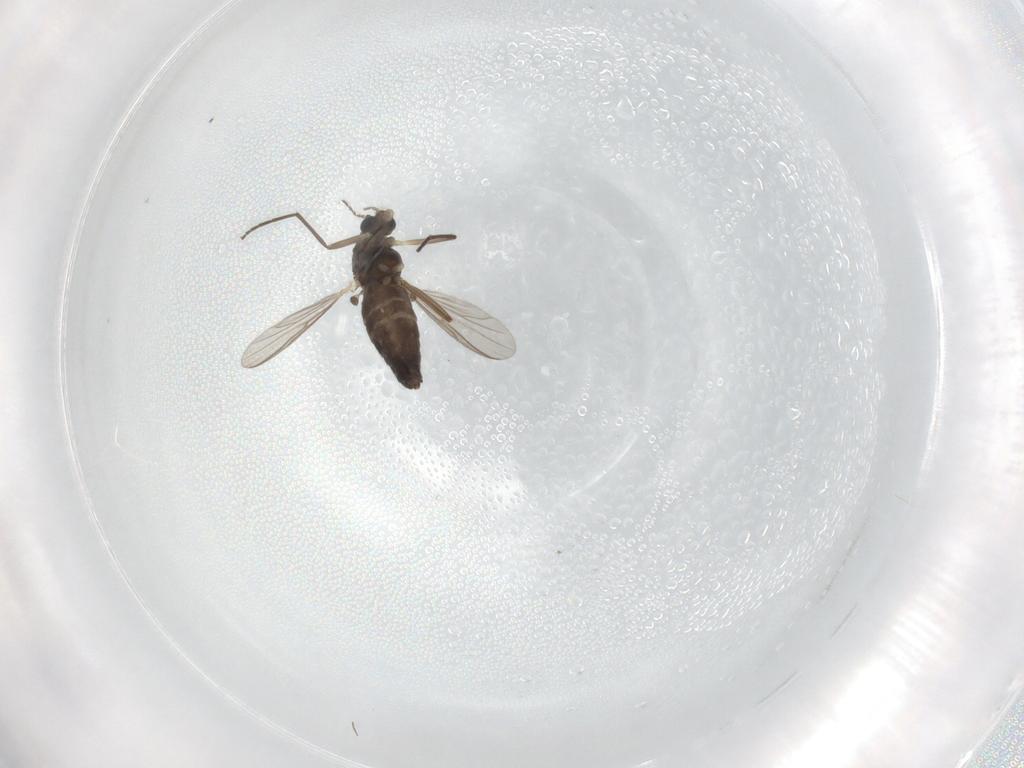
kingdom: Animalia
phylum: Arthropoda
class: Insecta
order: Diptera
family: Chironomidae
